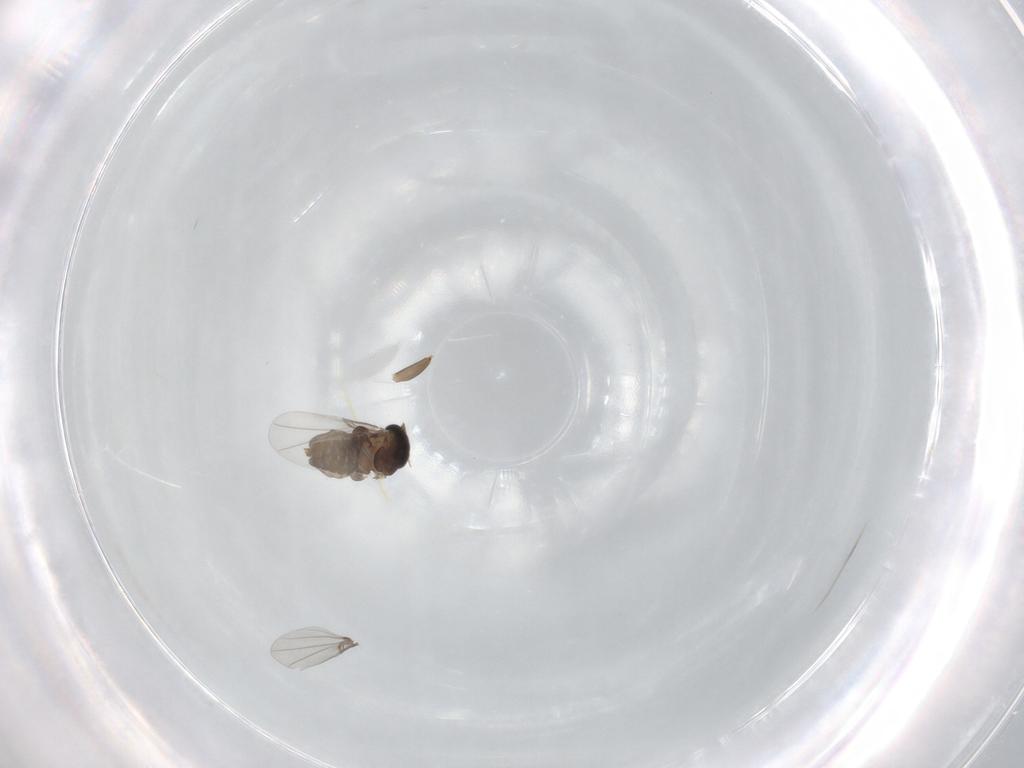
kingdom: Animalia
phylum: Arthropoda
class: Insecta
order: Diptera
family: Phoridae
